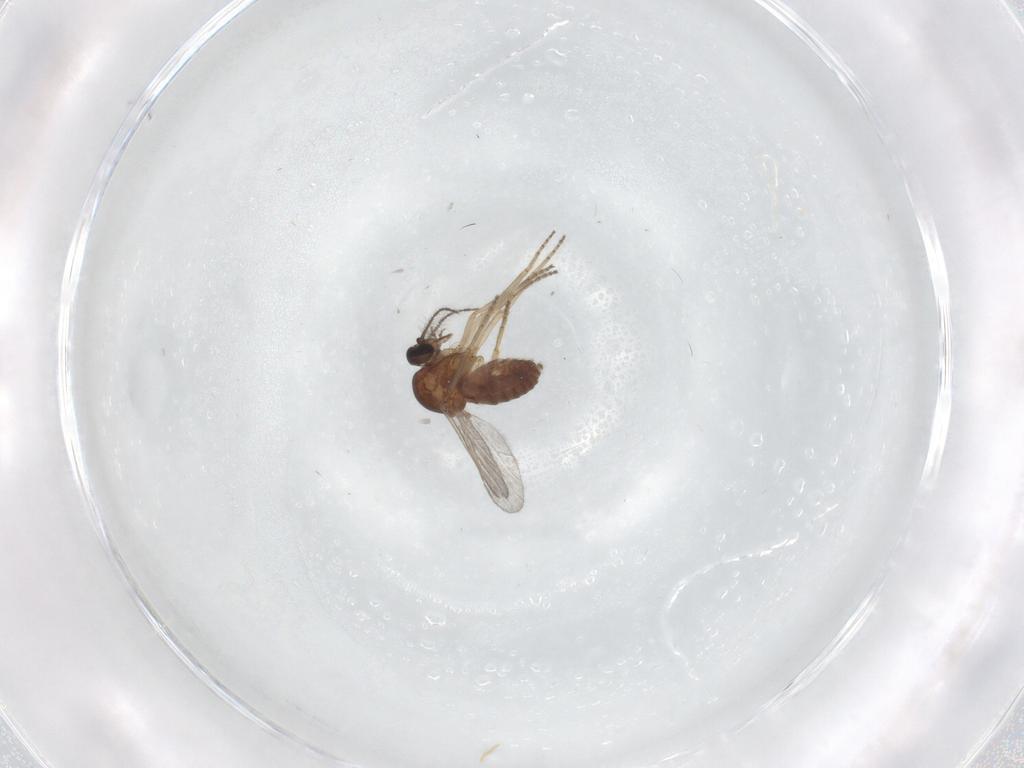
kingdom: Animalia
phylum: Arthropoda
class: Insecta
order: Diptera
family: Ceratopogonidae
